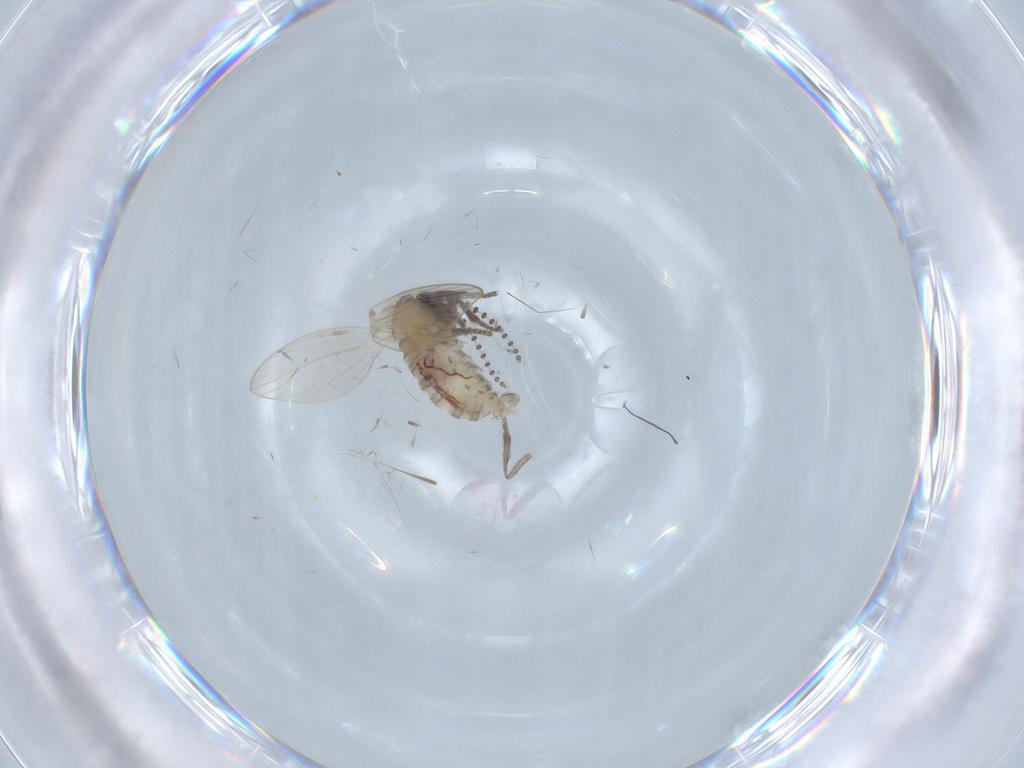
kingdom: Animalia
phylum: Arthropoda
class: Insecta
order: Diptera
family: Psychodidae
